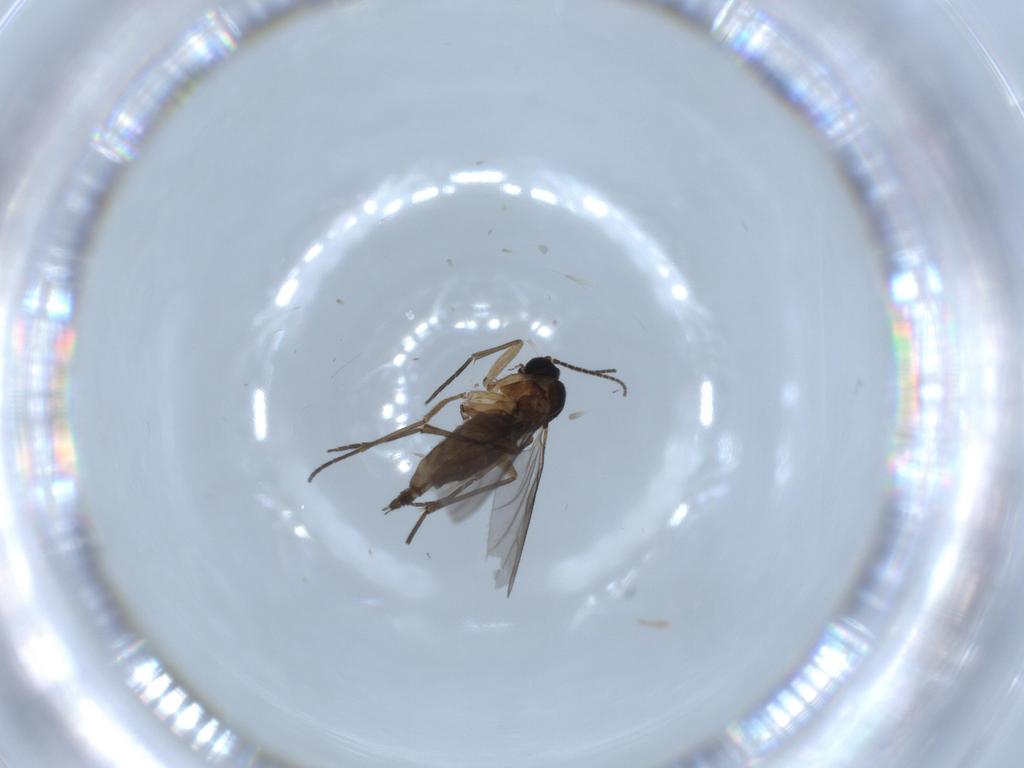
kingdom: Animalia
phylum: Arthropoda
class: Insecta
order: Diptera
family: Sciaridae
